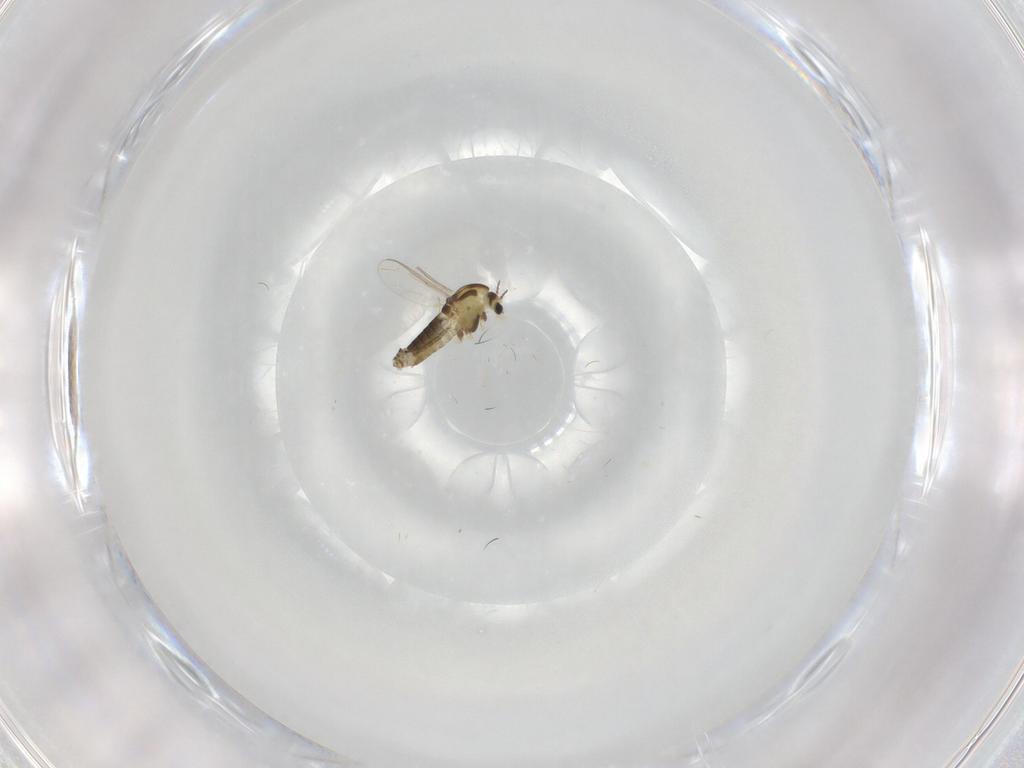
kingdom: Animalia
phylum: Arthropoda
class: Insecta
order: Diptera
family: Chironomidae
